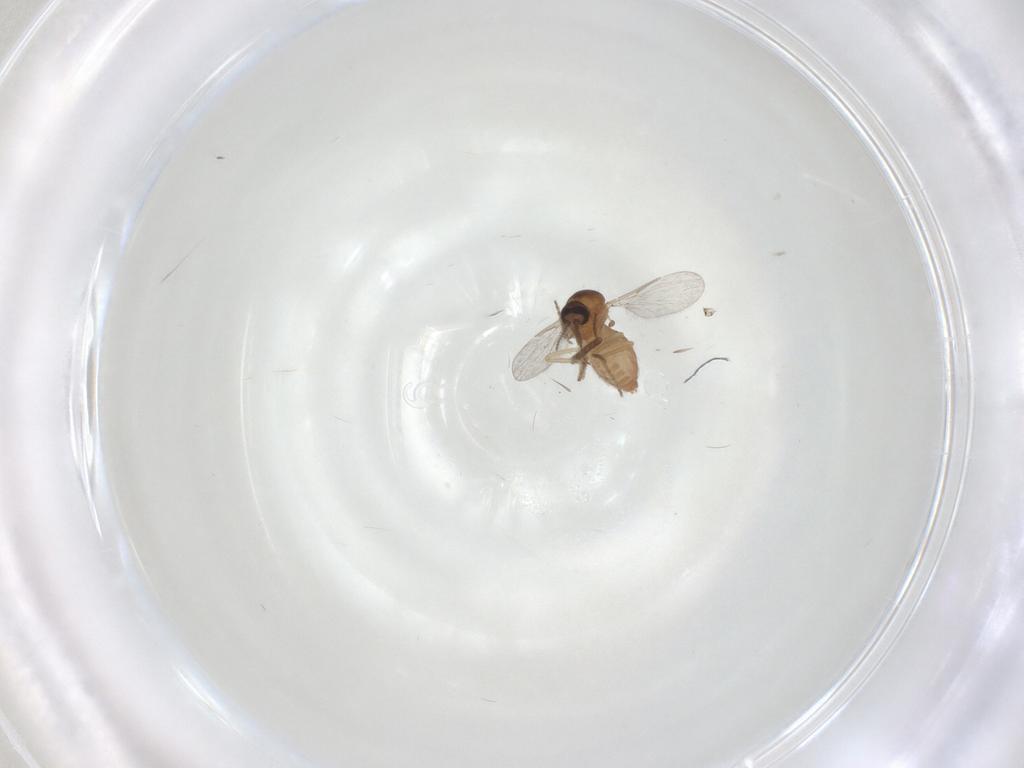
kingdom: Animalia
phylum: Arthropoda
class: Insecta
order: Diptera
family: Ceratopogonidae
